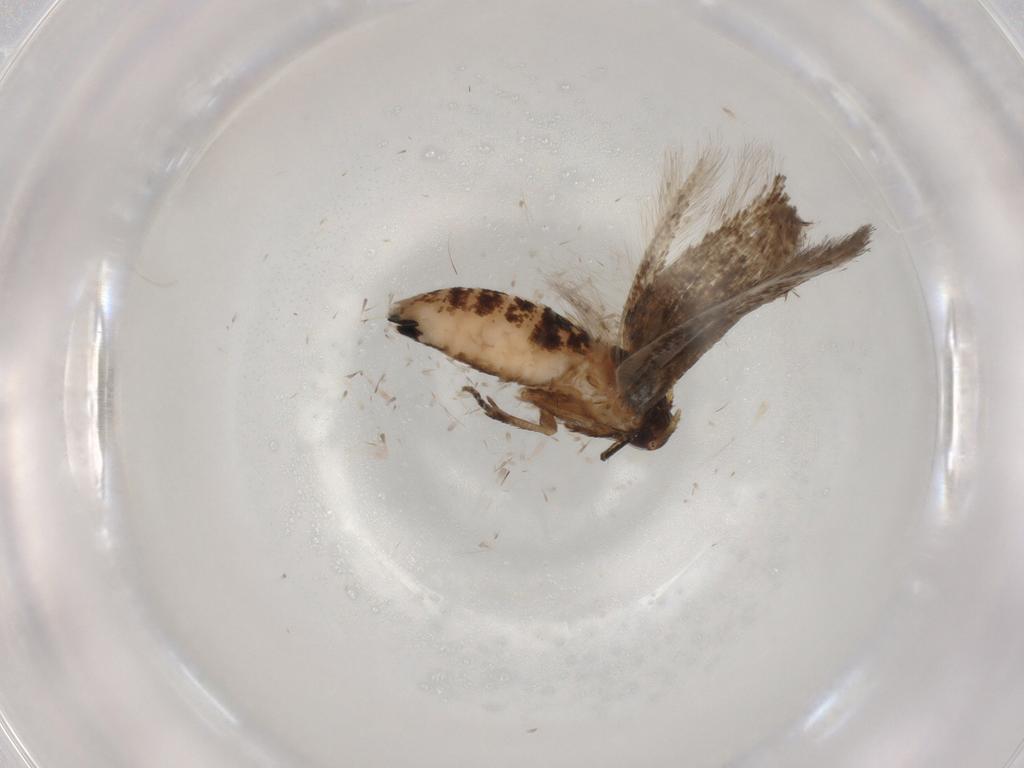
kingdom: Animalia
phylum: Arthropoda
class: Insecta
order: Lepidoptera
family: Cosmopterigidae
